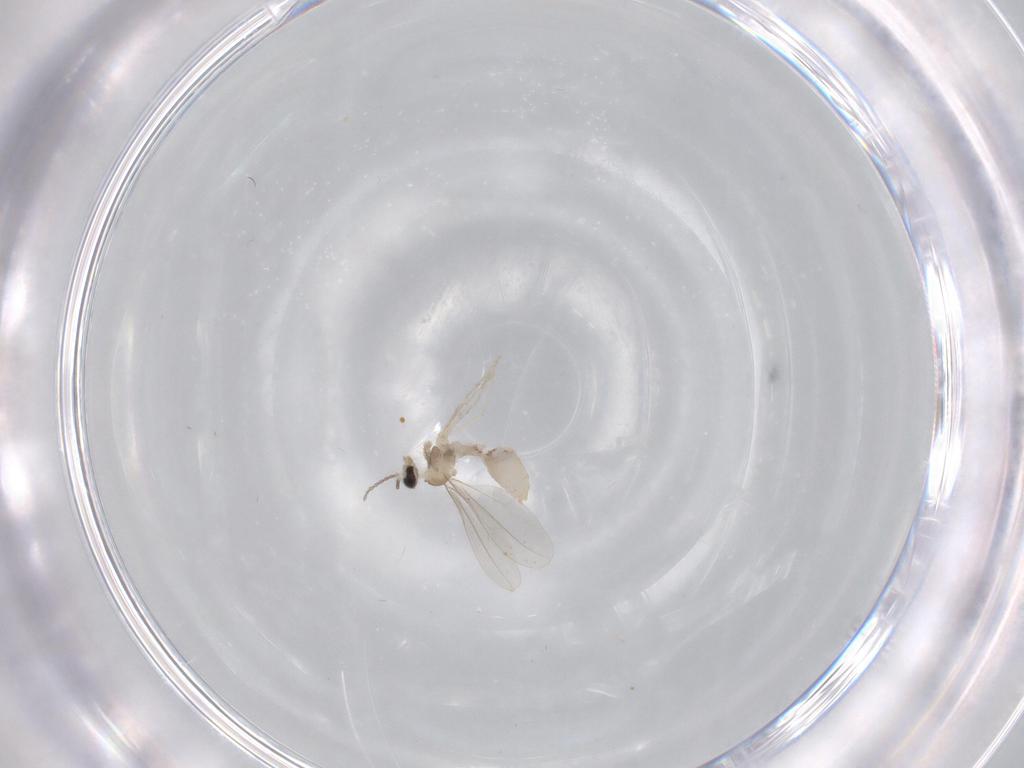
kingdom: Animalia
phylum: Arthropoda
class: Insecta
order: Diptera
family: Cecidomyiidae
